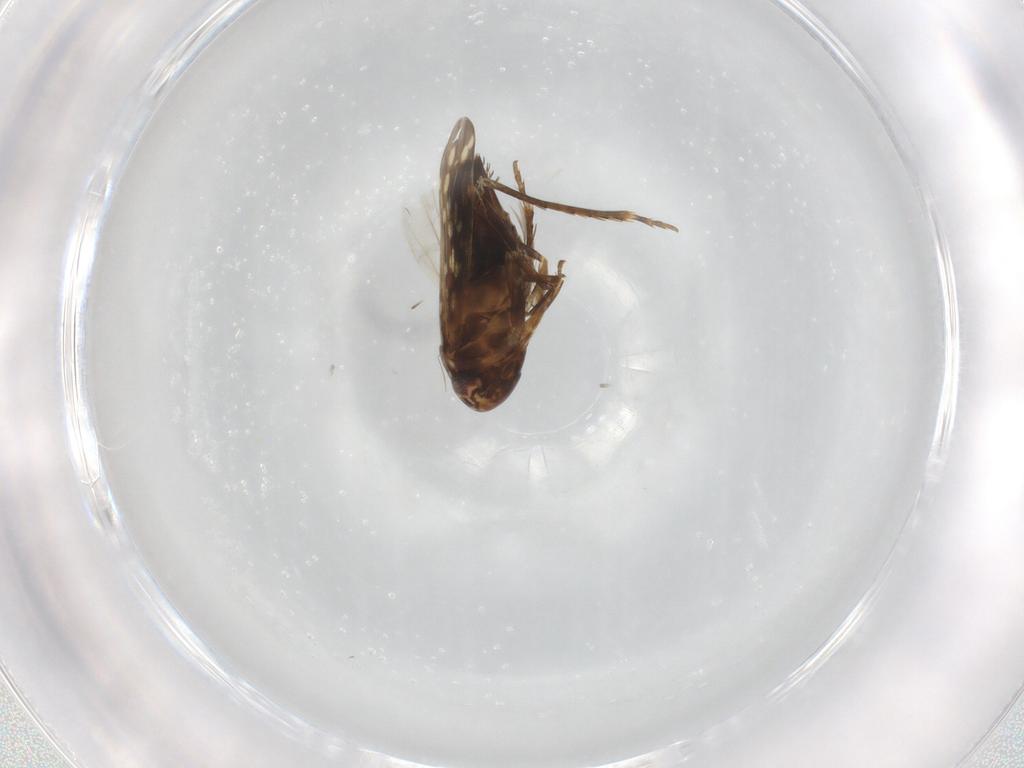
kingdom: Animalia
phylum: Arthropoda
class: Insecta
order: Hemiptera
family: Cicadellidae
